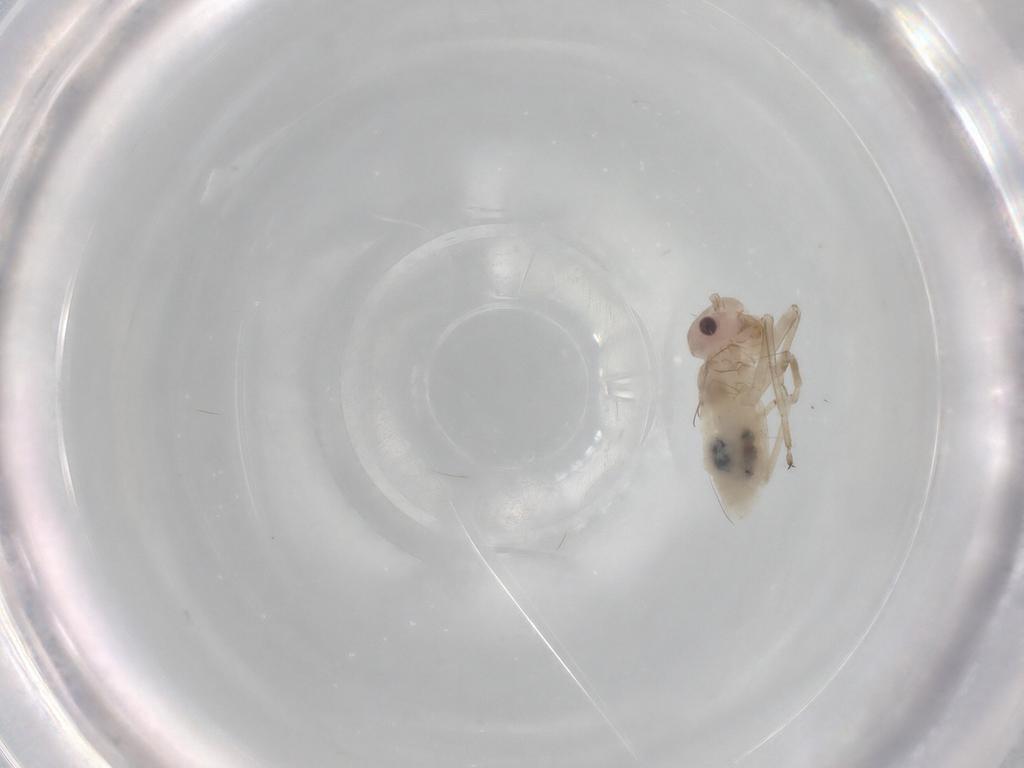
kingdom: Animalia
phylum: Arthropoda
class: Insecta
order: Psocodea
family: Stenopsocidae
